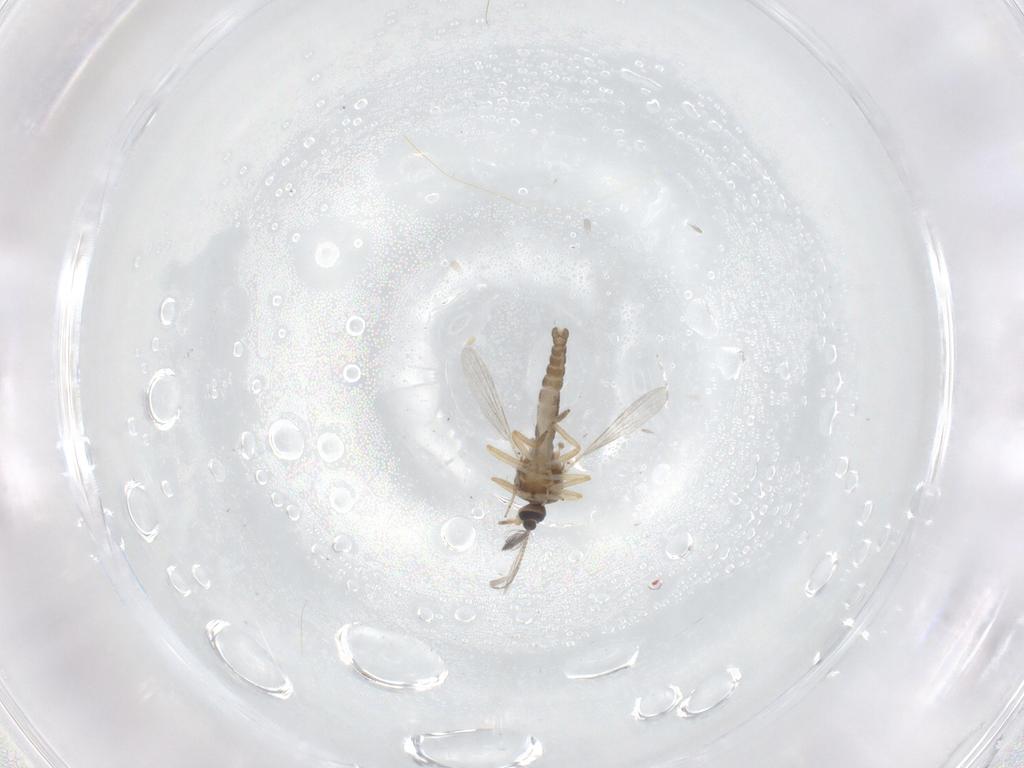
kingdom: Animalia
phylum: Arthropoda
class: Insecta
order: Diptera
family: Ceratopogonidae
